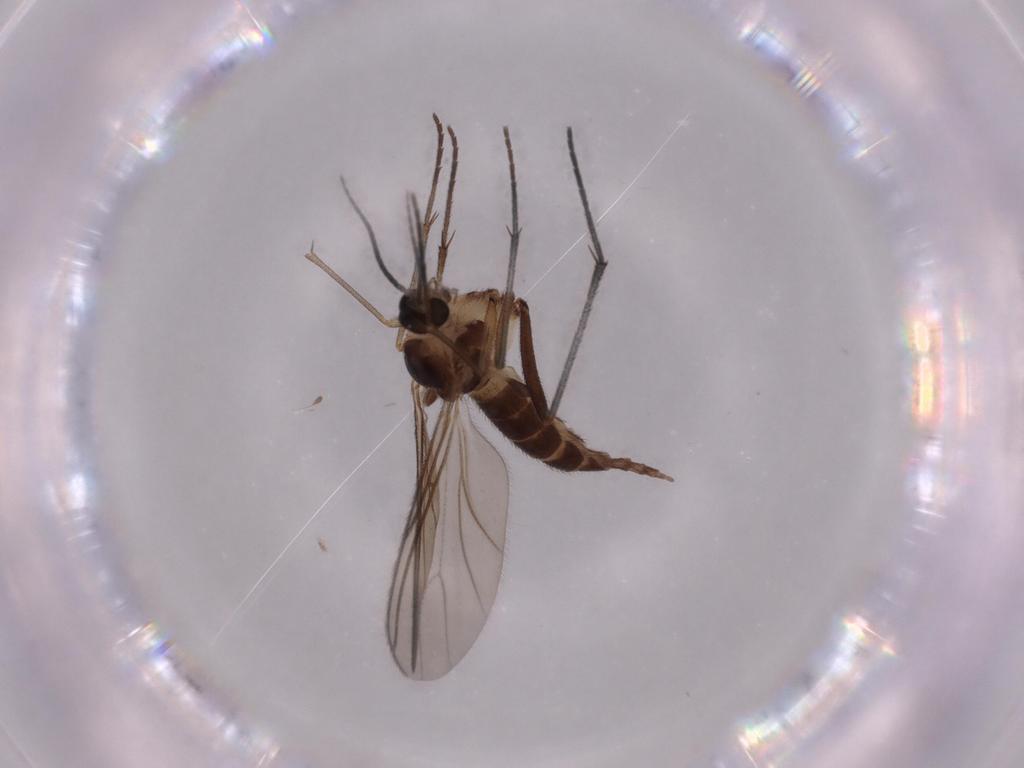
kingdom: Animalia
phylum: Arthropoda
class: Insecta
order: Diptera
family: Sciaridae
